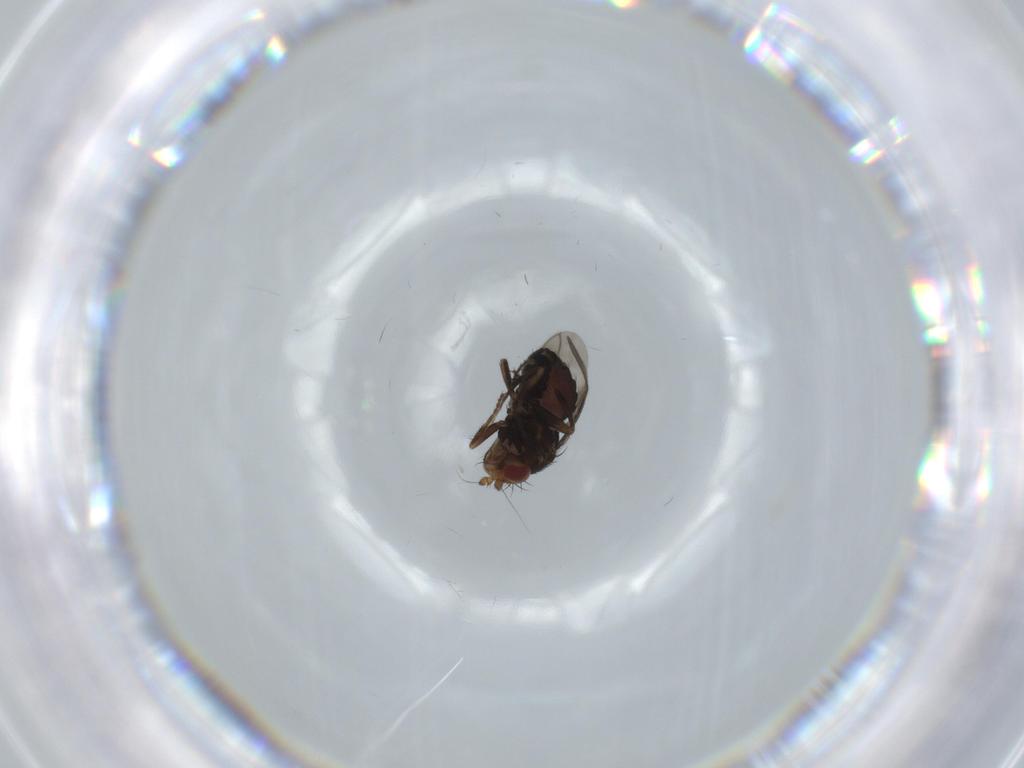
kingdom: Animalia
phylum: Arthropoda
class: Insecta
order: Diptera
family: Sphaeroceridae
